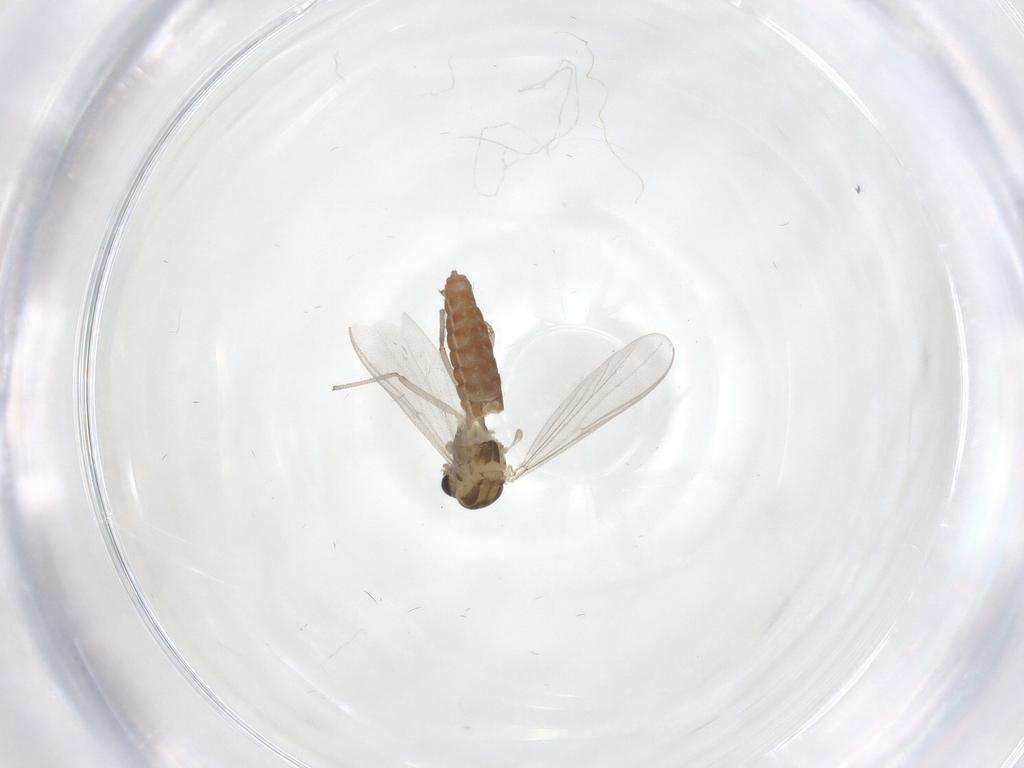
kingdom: Animalia
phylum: Arthropoda
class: Insecta
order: Diptera
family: Chironomidae
